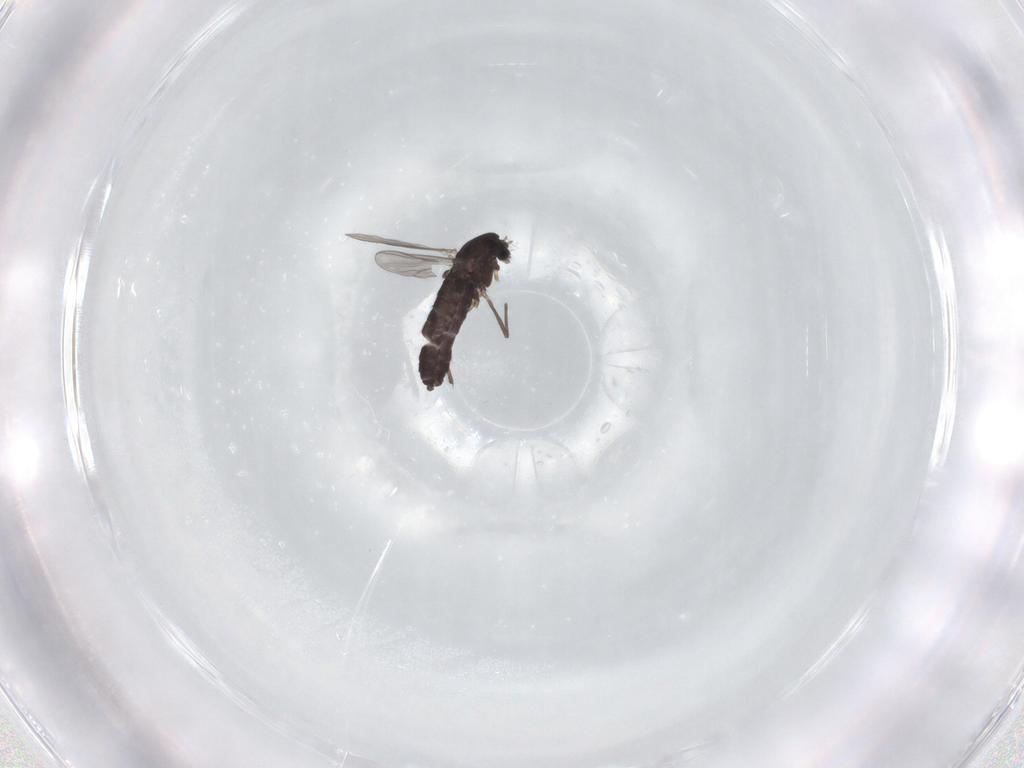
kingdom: Animalia
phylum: Arthropoda
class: Insecta
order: Diptera
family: Chironomidae
